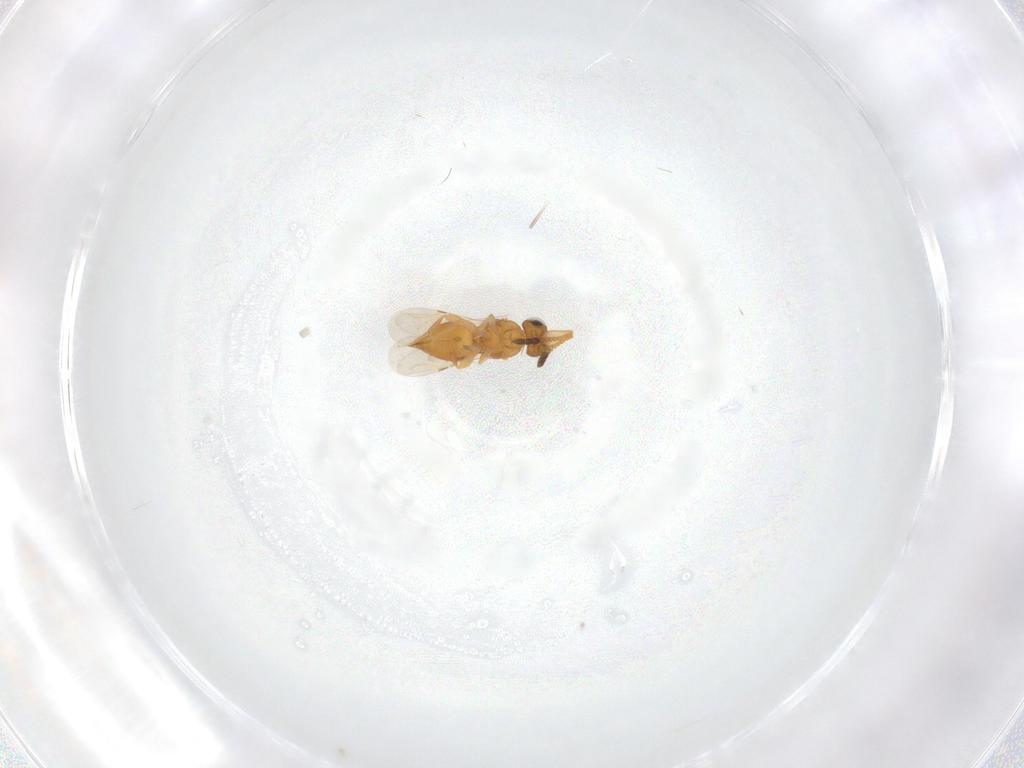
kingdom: Animalia
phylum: Arthropoda
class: Insecta
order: Hymenoptera
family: Ceraphronidae
